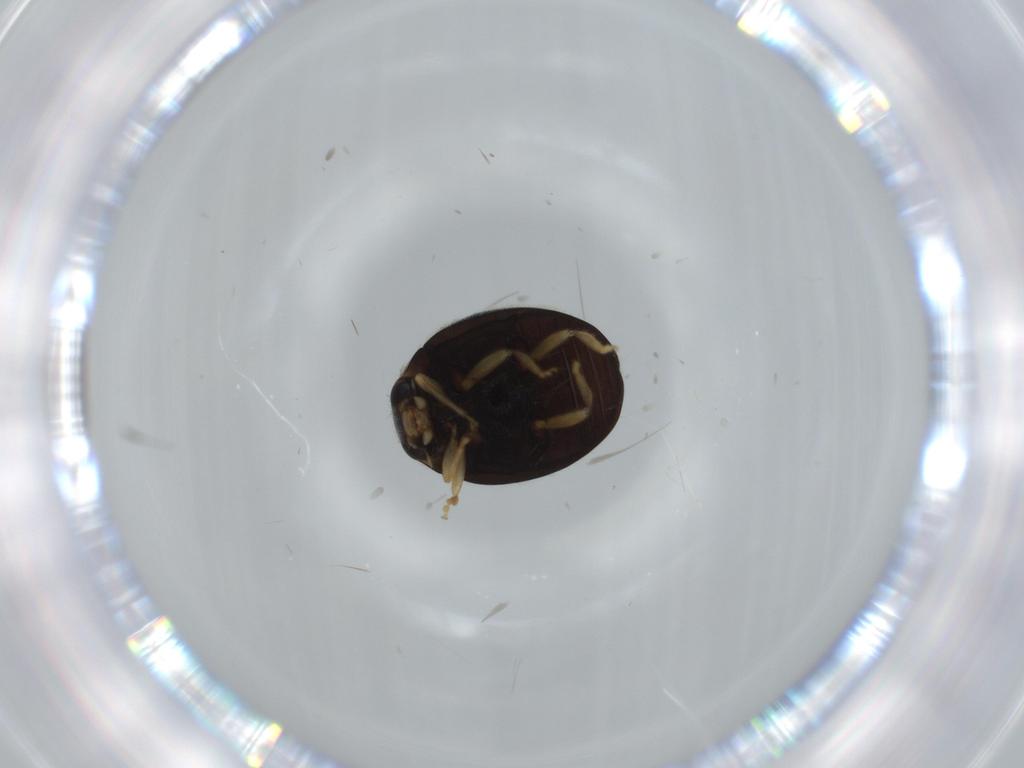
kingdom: Animalia
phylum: Arthropoda
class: Insecta
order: Coleoptera
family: Coccinellidae
